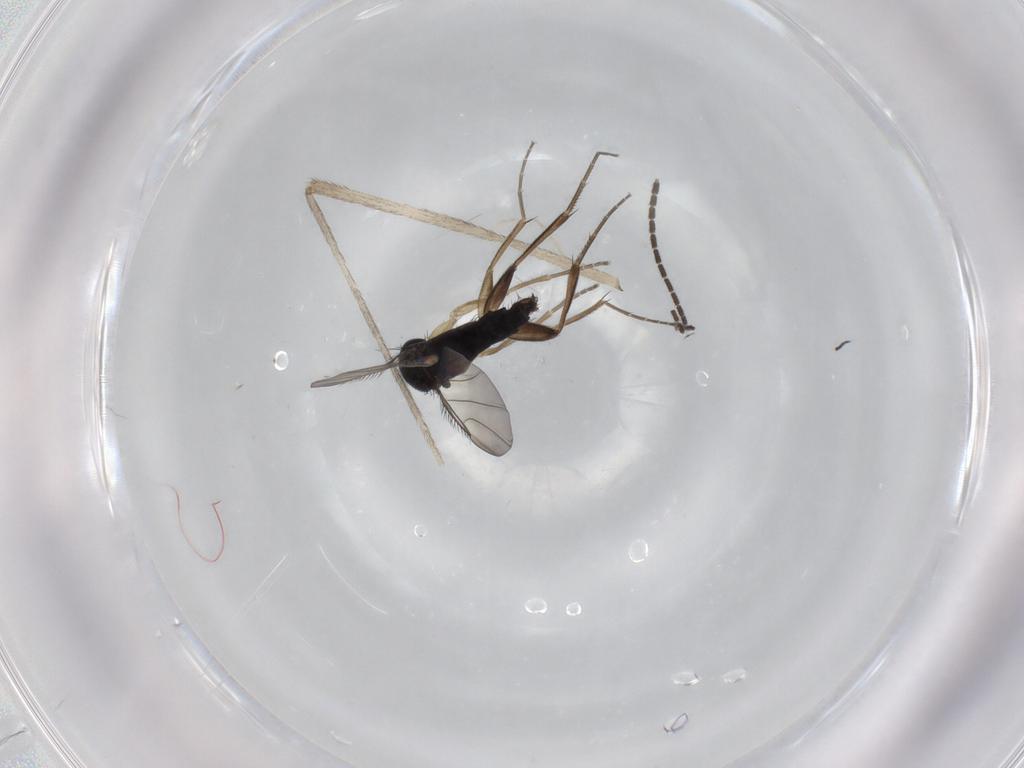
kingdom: Animalia
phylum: Arthropoda
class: Insecta
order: Diptera
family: Phoridae
